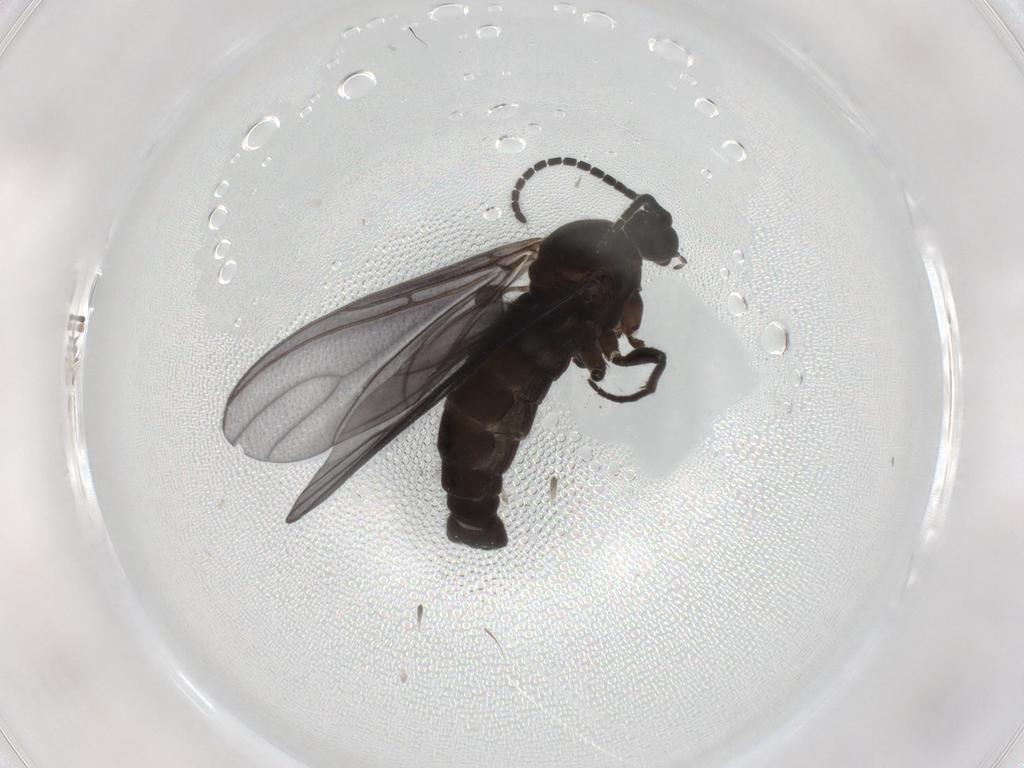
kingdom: Animalia
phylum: Arthropoda
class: Insecta
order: Diptera
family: Sciaridae
